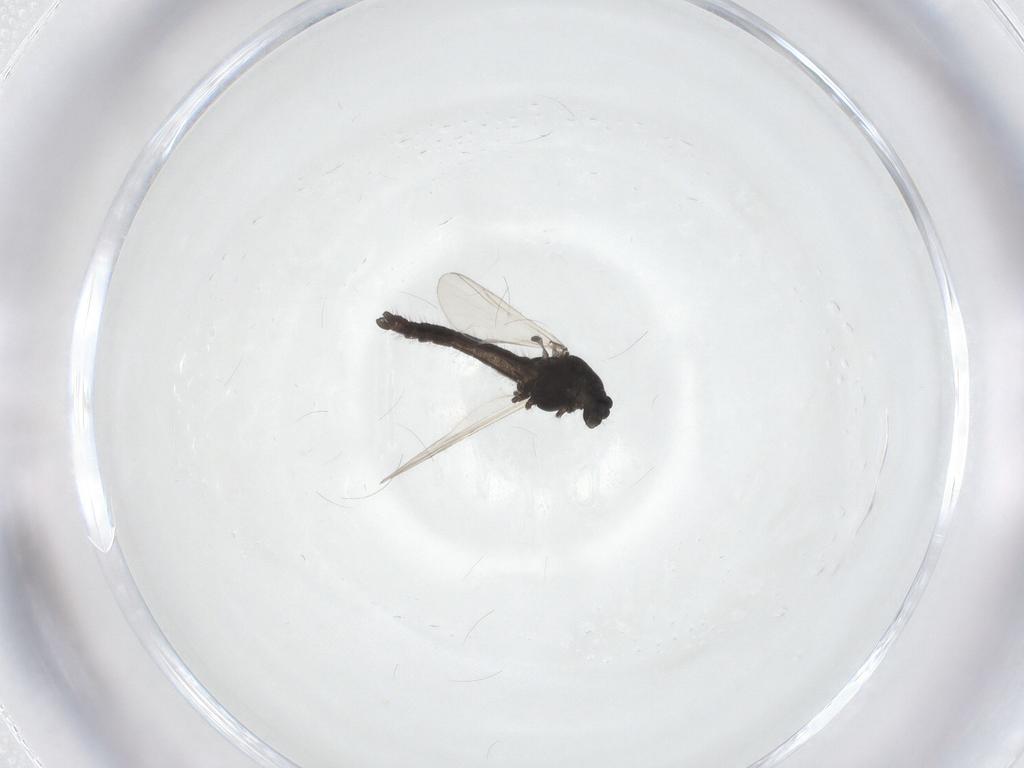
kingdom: Animalia
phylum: Arthropoda
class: Insecta
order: Diptera
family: Chironomidae
